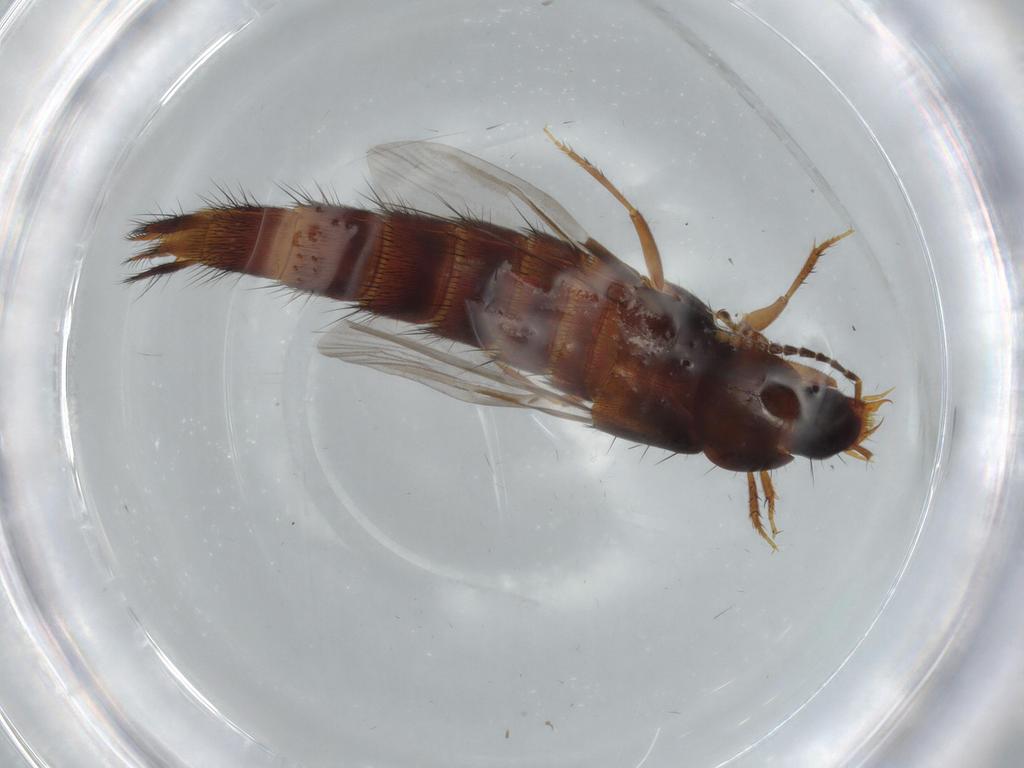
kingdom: Animalia
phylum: Arthropoda
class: Insecta
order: Coleoptera
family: Staphylinidae
